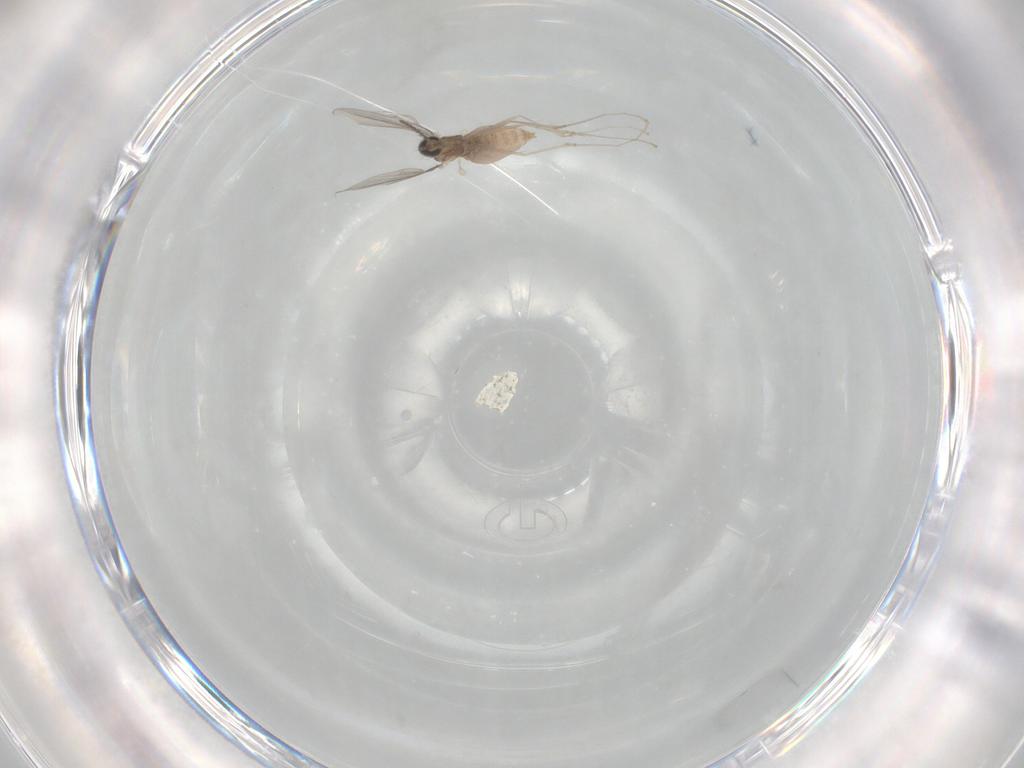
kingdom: Animalia
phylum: Arthropoda
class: Insecta
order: Diptera
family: Cecidomyiidae
